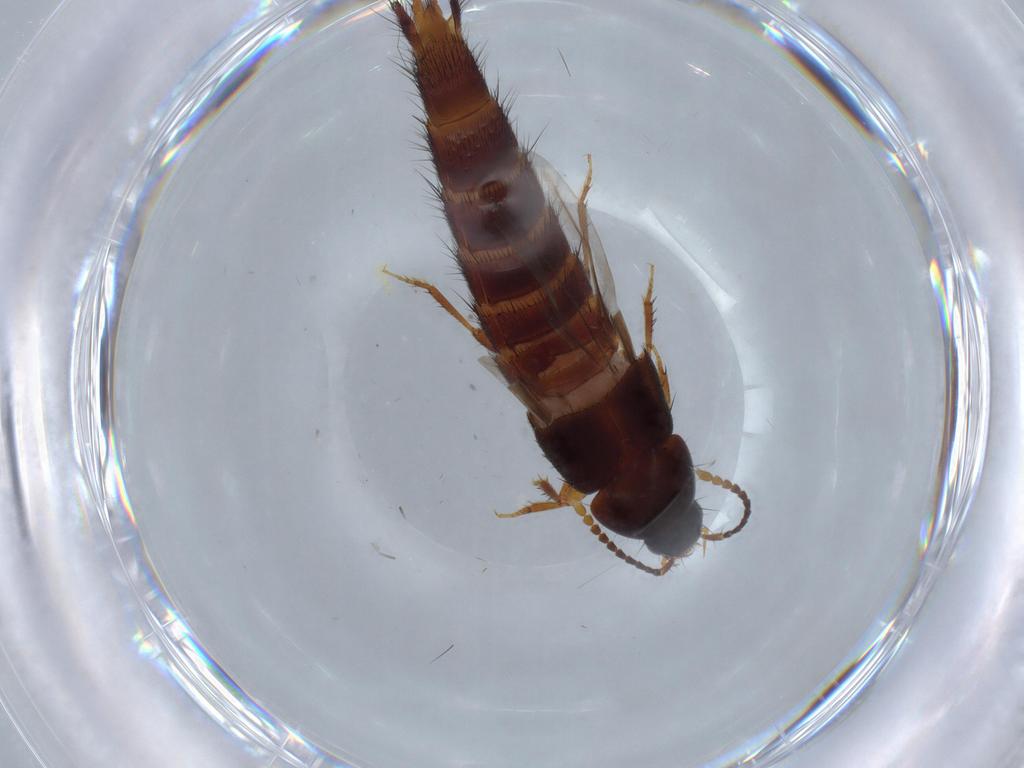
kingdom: Animalia
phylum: Arthropoda
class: Insecta
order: Coleoptera
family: Staphylinidae
